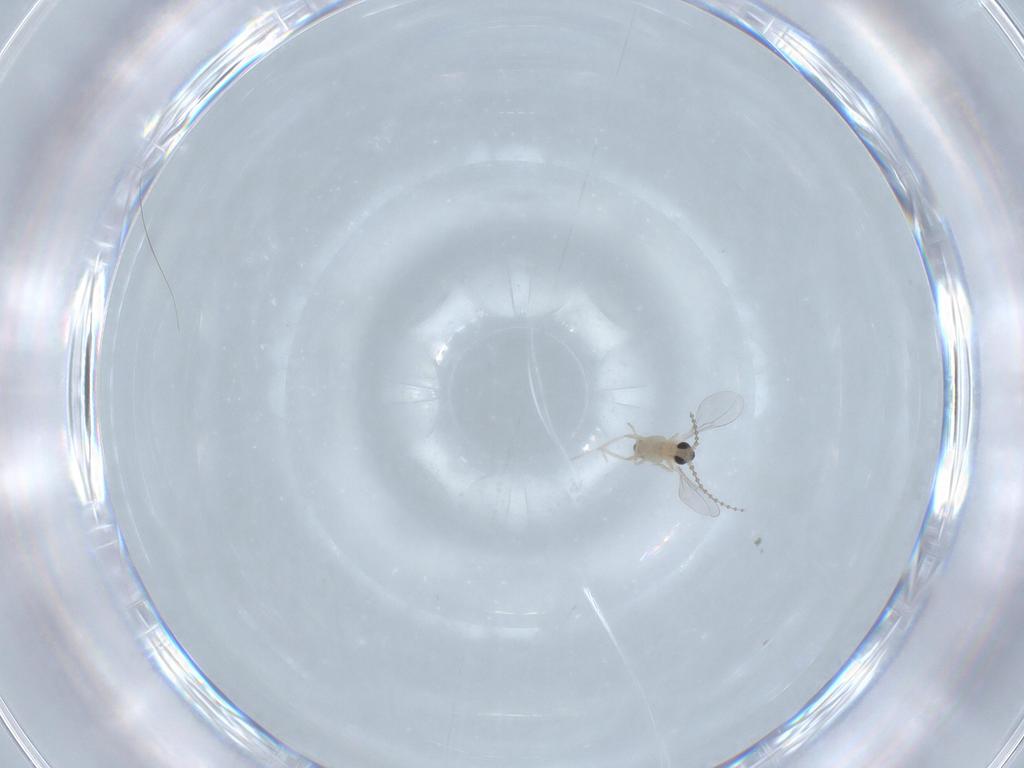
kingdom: Animalia
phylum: Arthropoda
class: Insecta
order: Diptera
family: Cecidomyiidae
